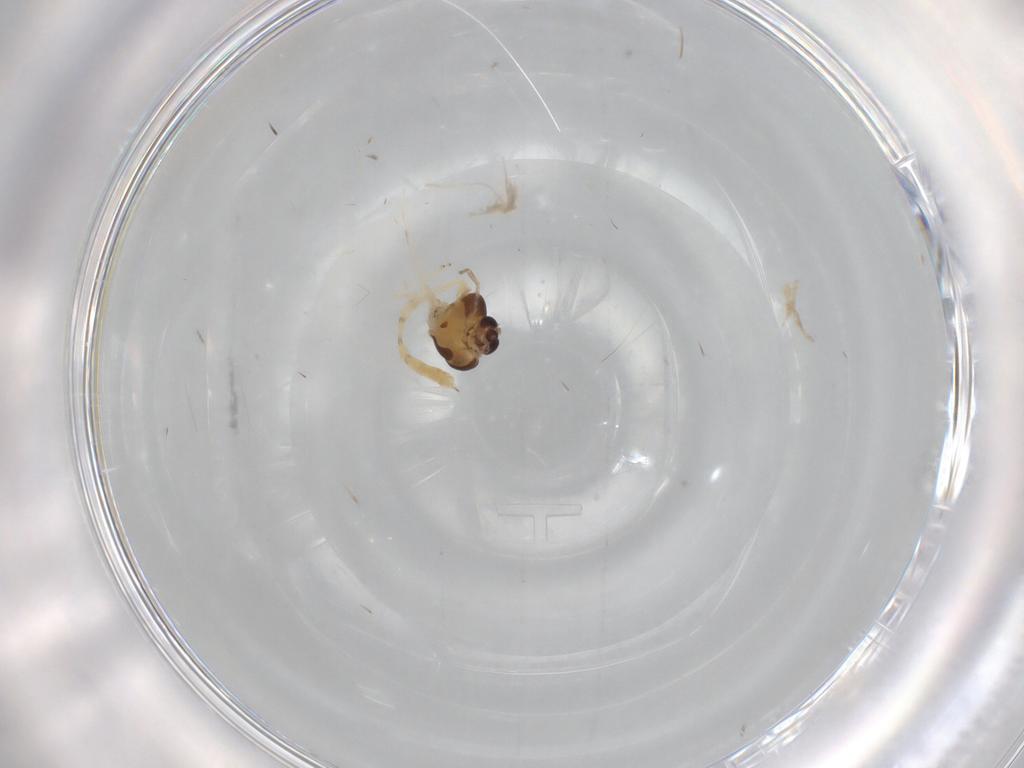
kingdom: Animalia
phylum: Arthropoda
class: Insecta
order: Diptera
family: Chironomidae
